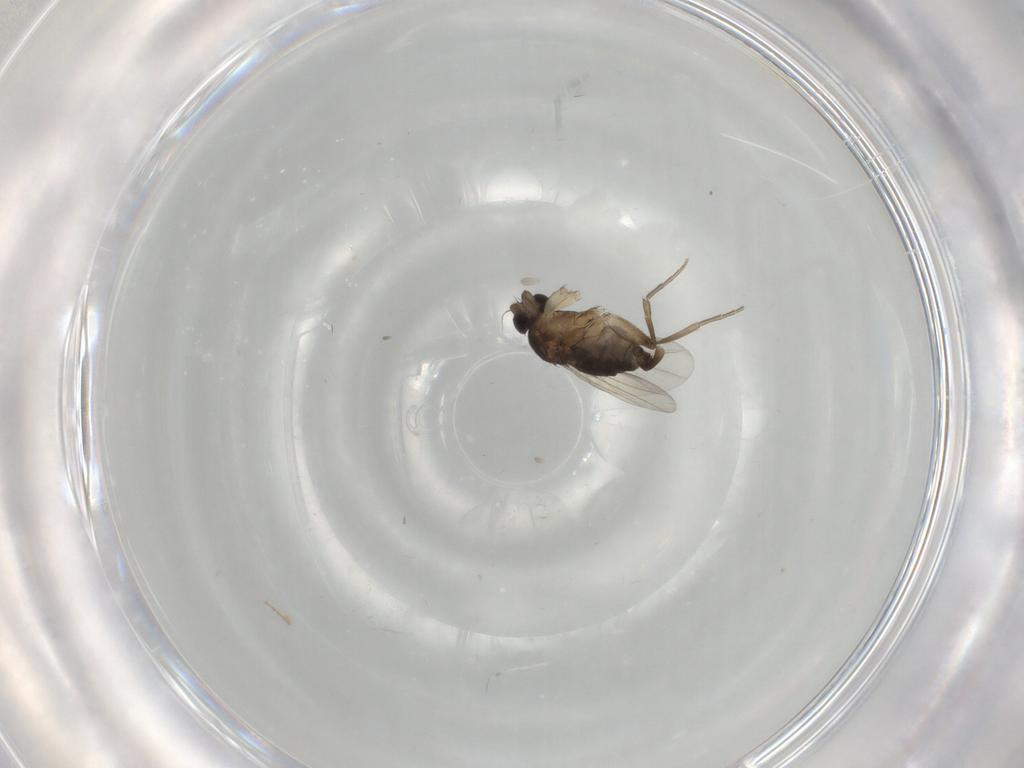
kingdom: Animalia
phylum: Arthropoda
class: Insecta
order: Diptera
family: Phoridae
